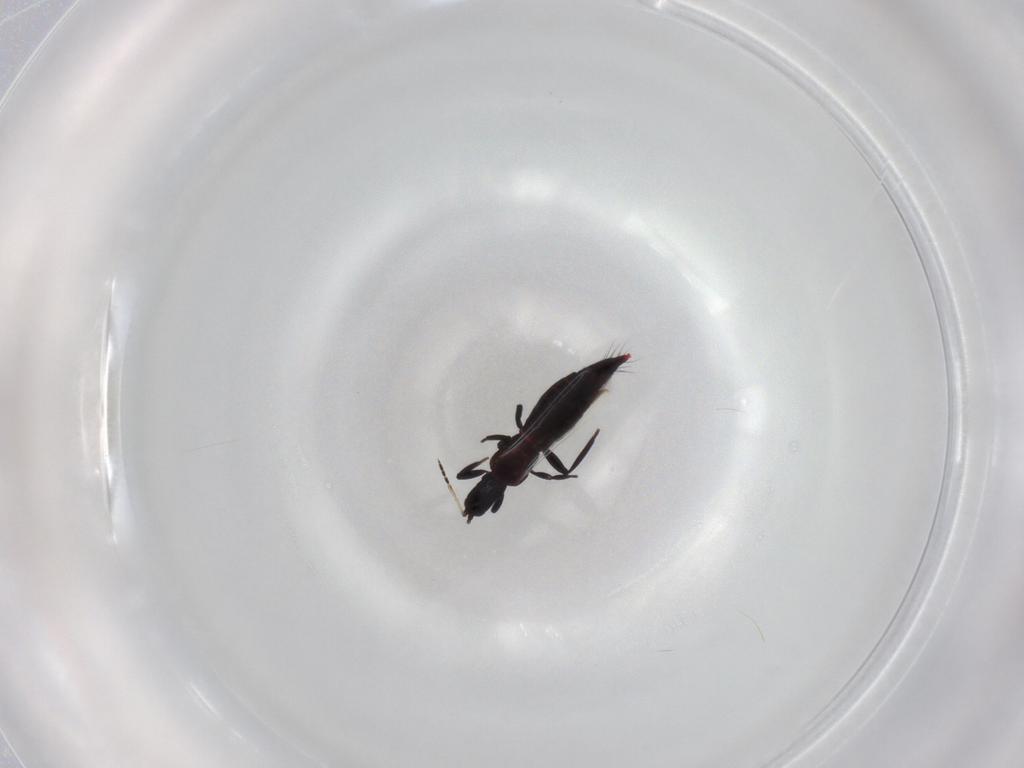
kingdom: Animalia
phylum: Arthropoda
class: Insecta
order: Thysanoptera
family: Aeolothripidae
